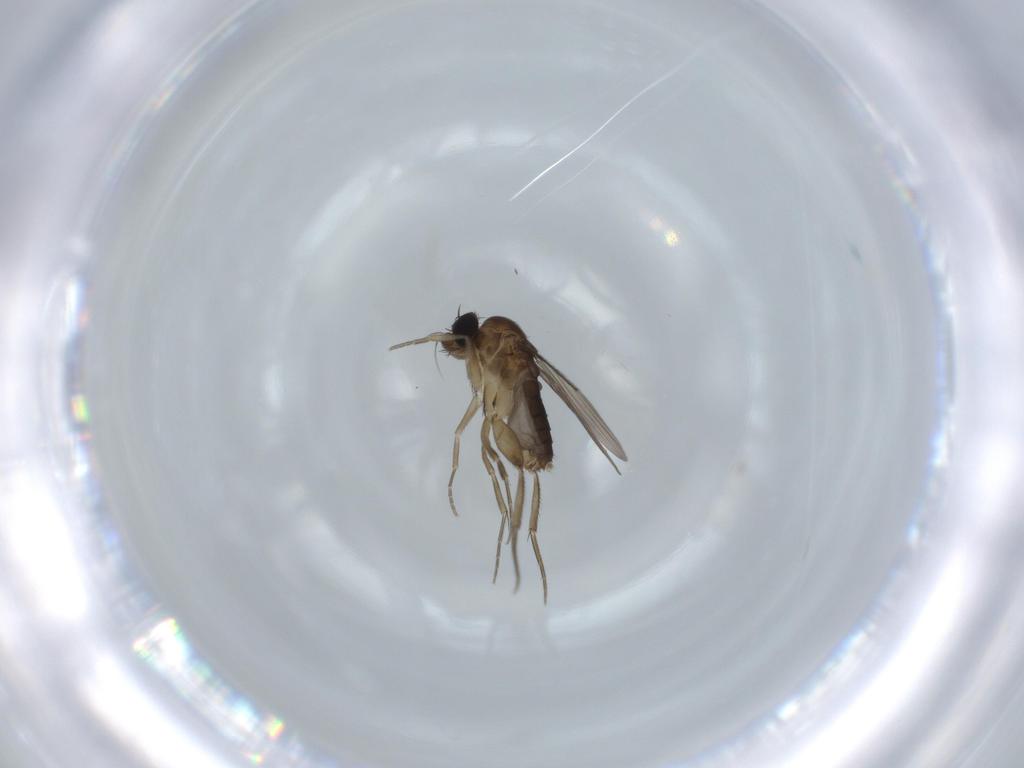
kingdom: Animalia
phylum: Arthropoda
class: Insecta
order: Diptera
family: Phoridae
